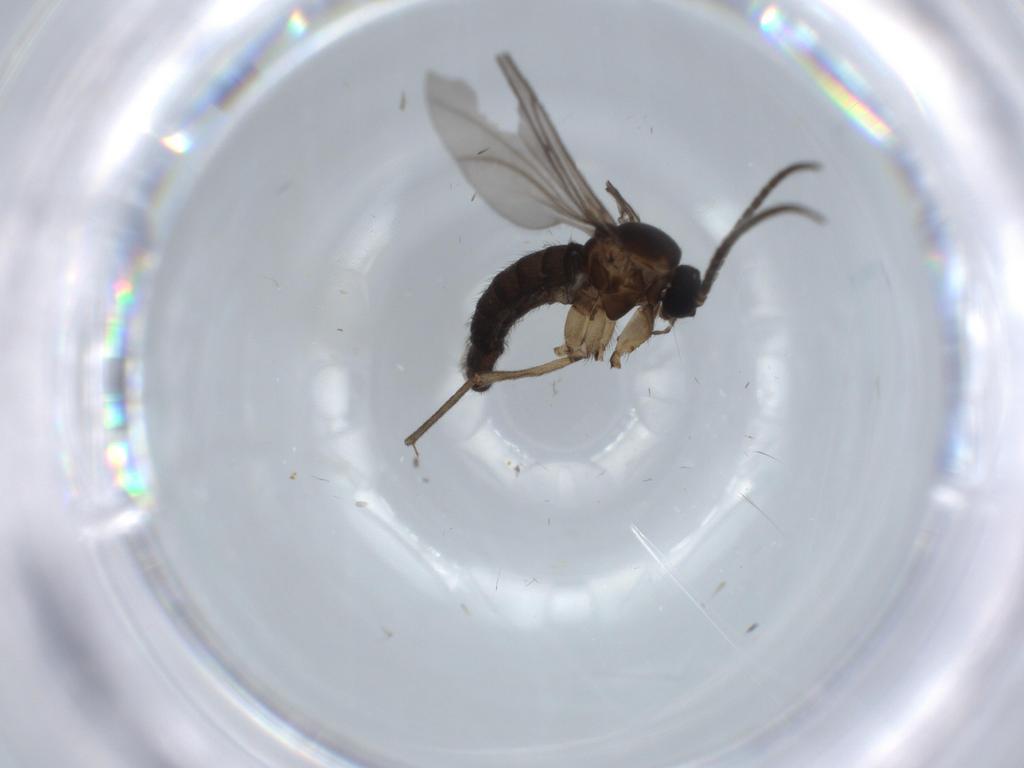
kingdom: Animalia
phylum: Arthropoda
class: Insecta
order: Diptera
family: Sciaridae
